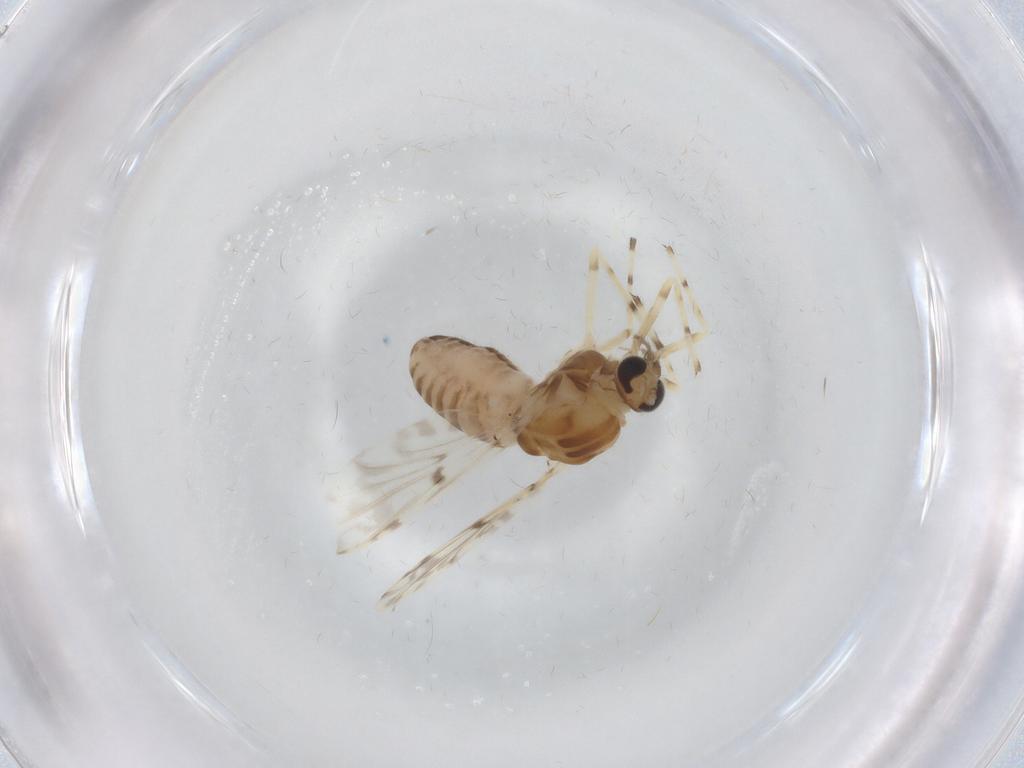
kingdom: Animalia
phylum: Arthropoda
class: Insecta
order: Diptera
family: Chironomidae
